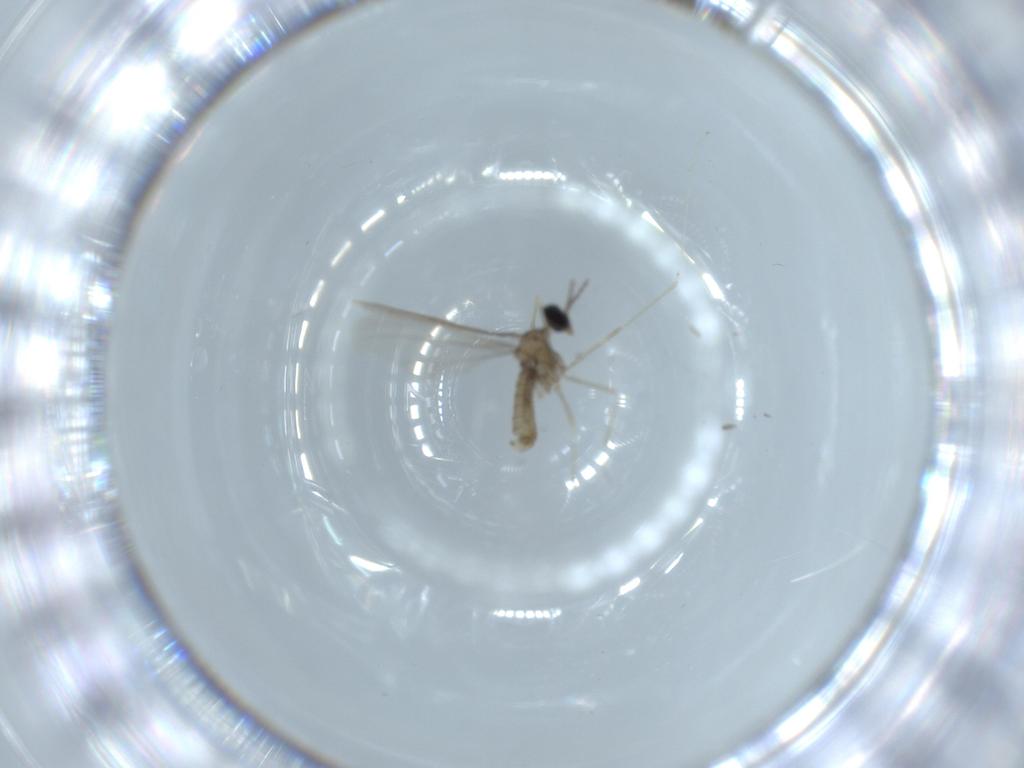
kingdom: Animalia
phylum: Arthropoda
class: Insecta
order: Diptera
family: Cecidomyiidae
